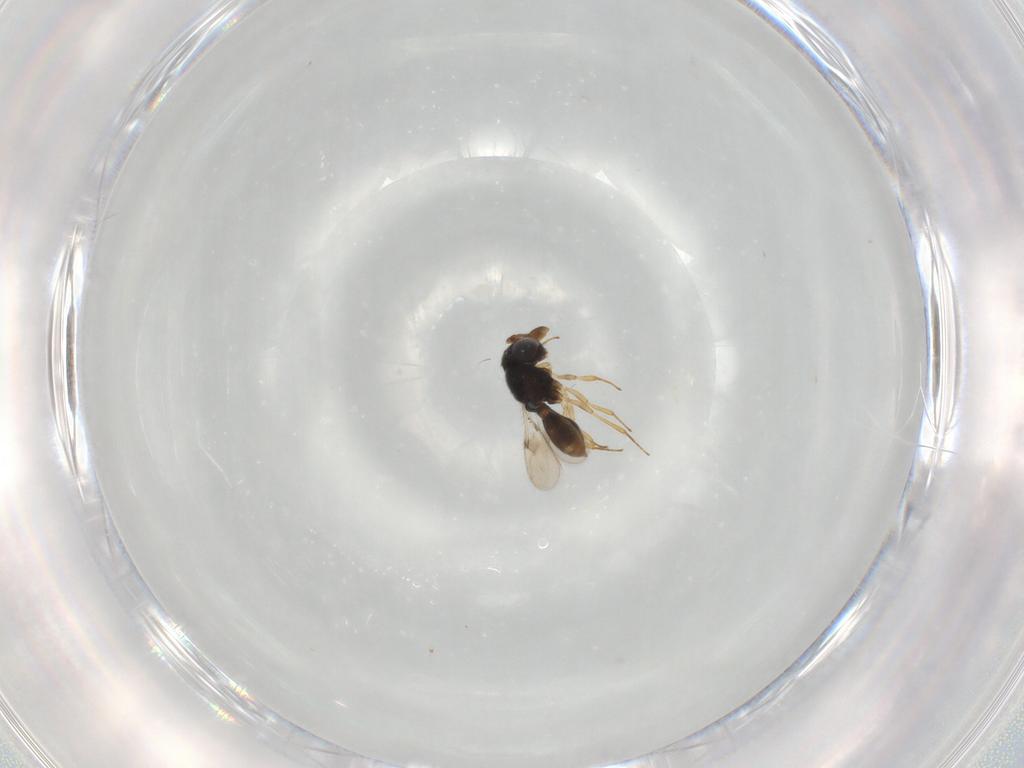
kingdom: Animalia
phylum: Arthropoda
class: Insecta
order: Hymenoptera
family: Scelionidae
